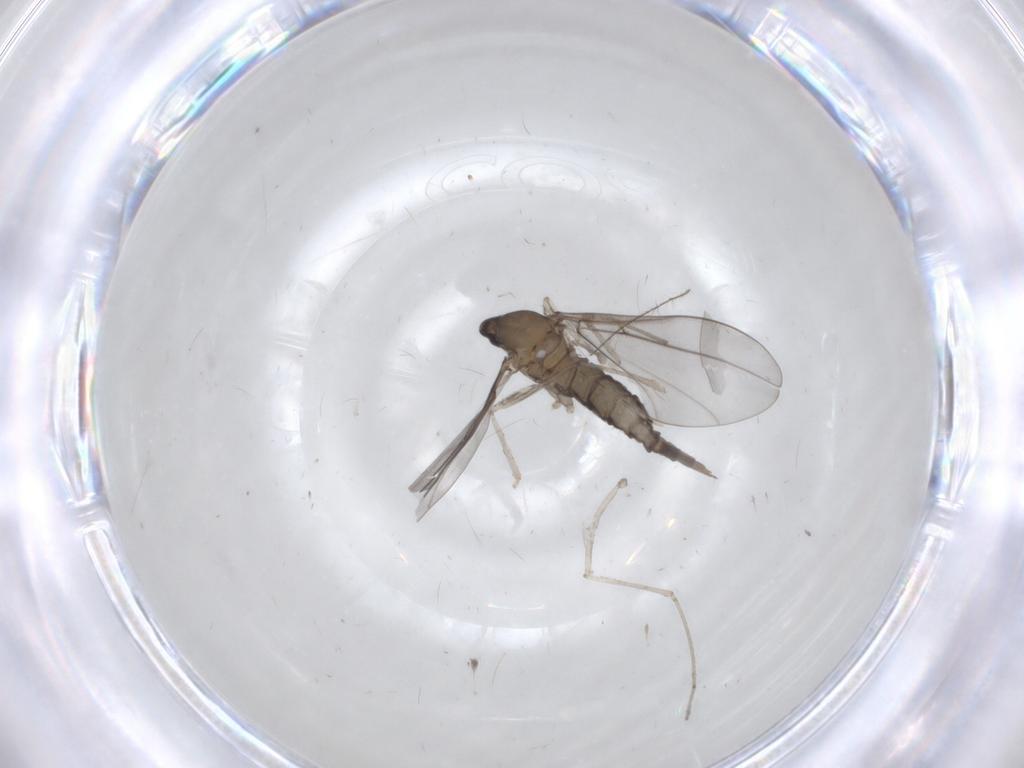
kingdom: Animalia
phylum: Arthropoda
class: Insecta
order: Diptera
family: Cecidomyiidae
